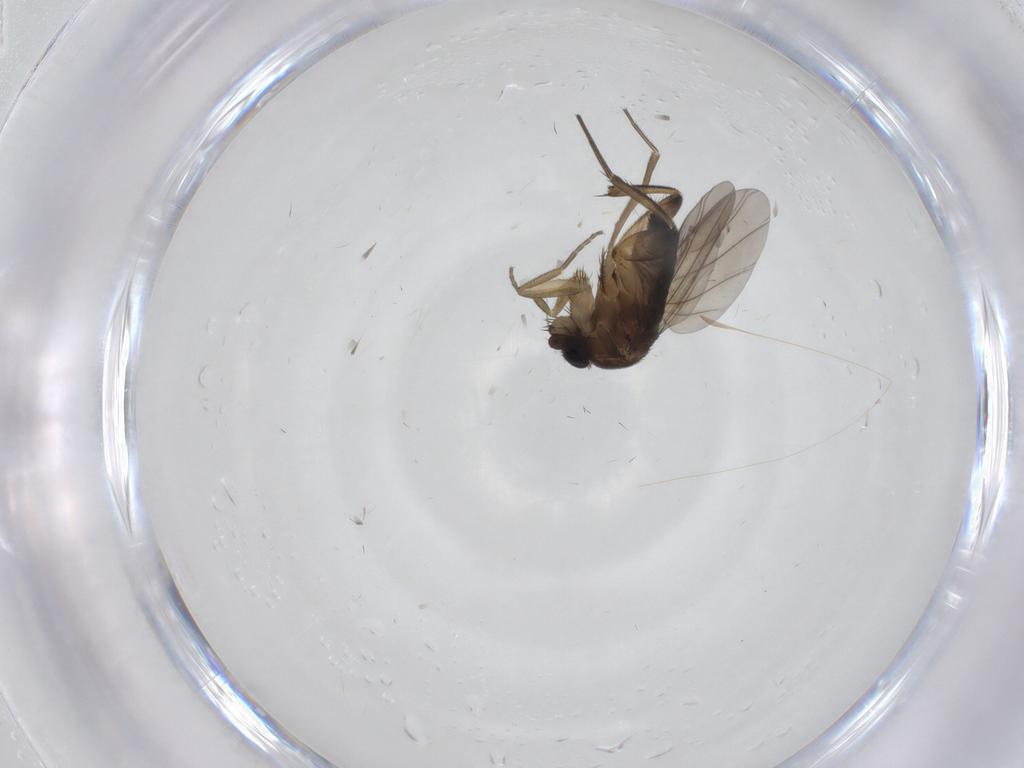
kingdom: Animalia
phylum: Arthropoda
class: Insecta
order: Diptera
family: Phoridae
